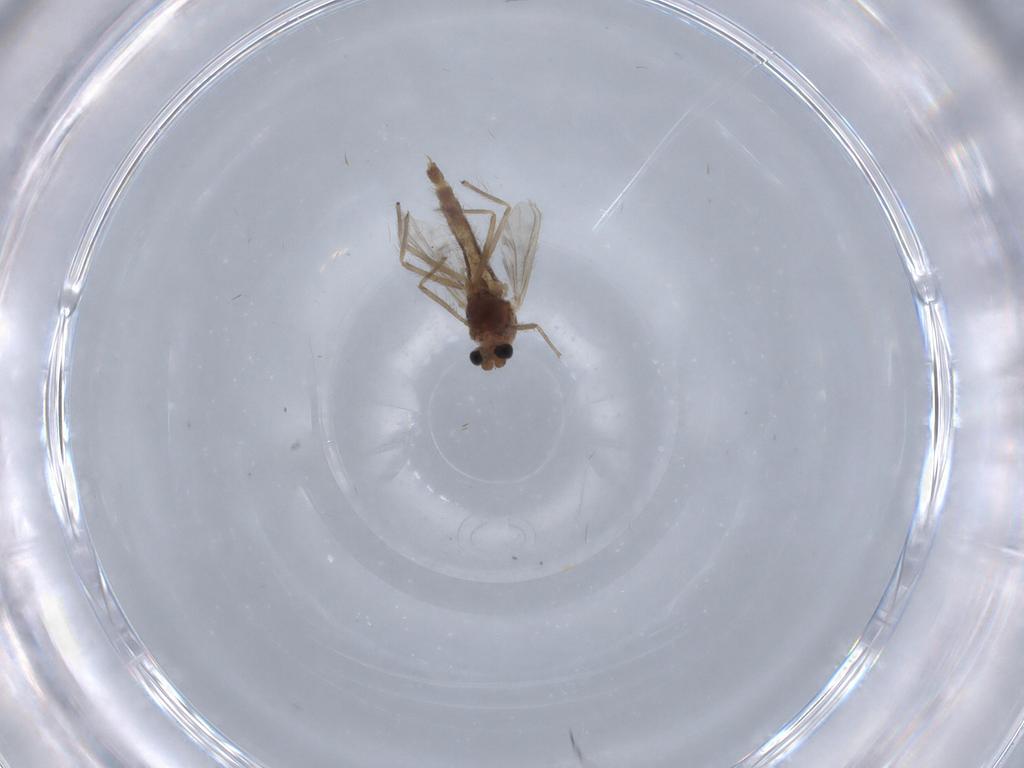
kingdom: Animalia
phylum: Arthropoda
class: Insecta
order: Diptera
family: Chironomidae
